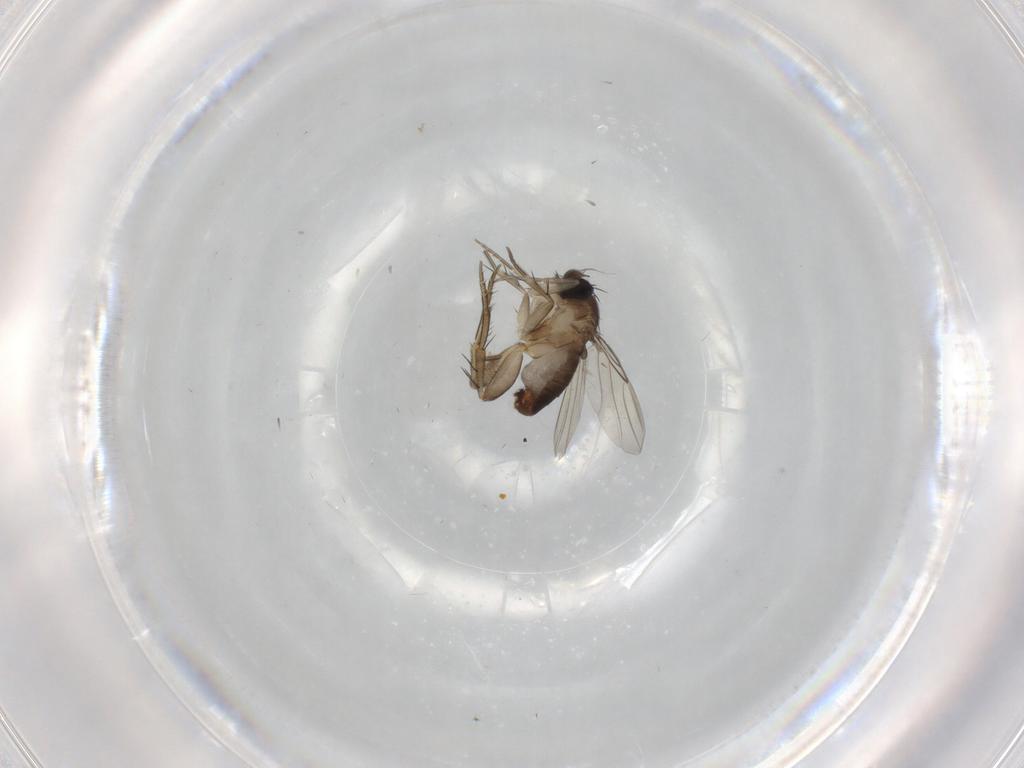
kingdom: Animalia
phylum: Arthropoda
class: Insecta
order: Diptera
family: Phoridae
